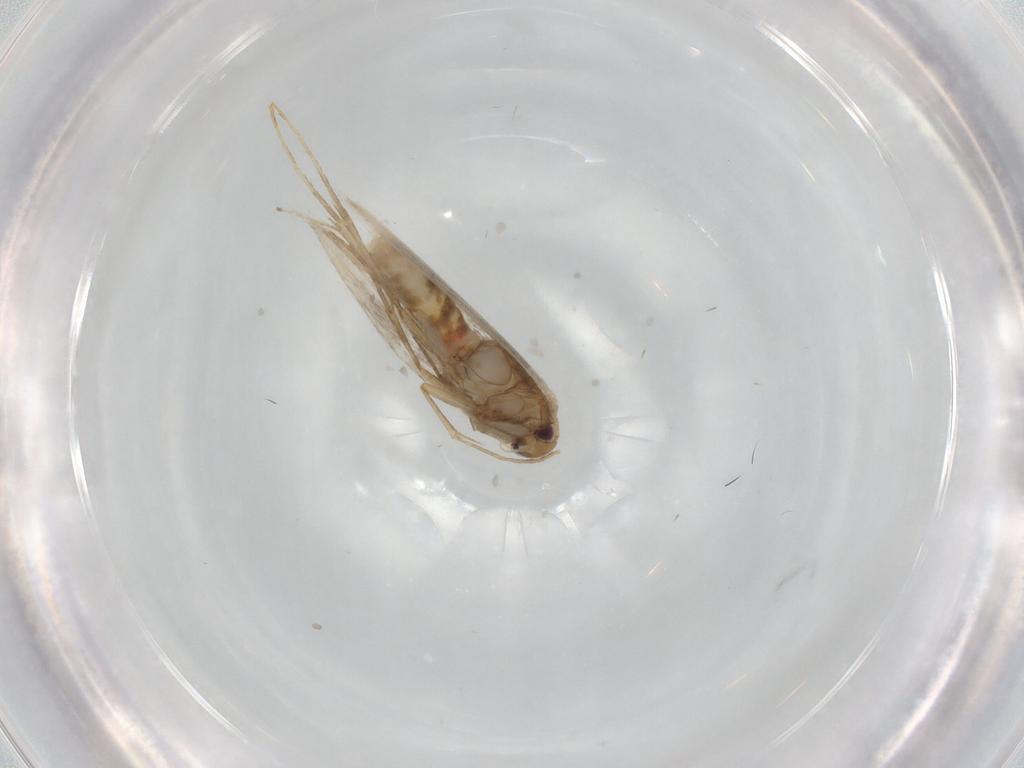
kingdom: Animalia
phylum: Arthropoda
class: Insecta
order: Lepidoptera
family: Gracillariidae
